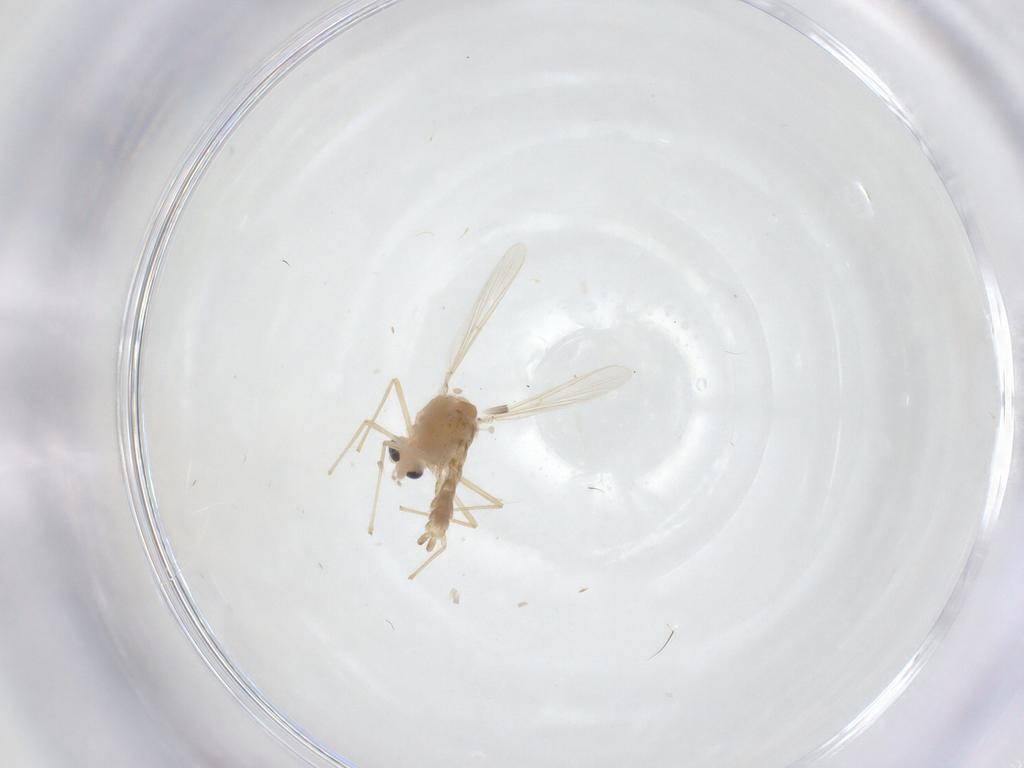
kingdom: Animalia
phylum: Arthropoda
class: Insecta
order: Diptera
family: Chironomidae
